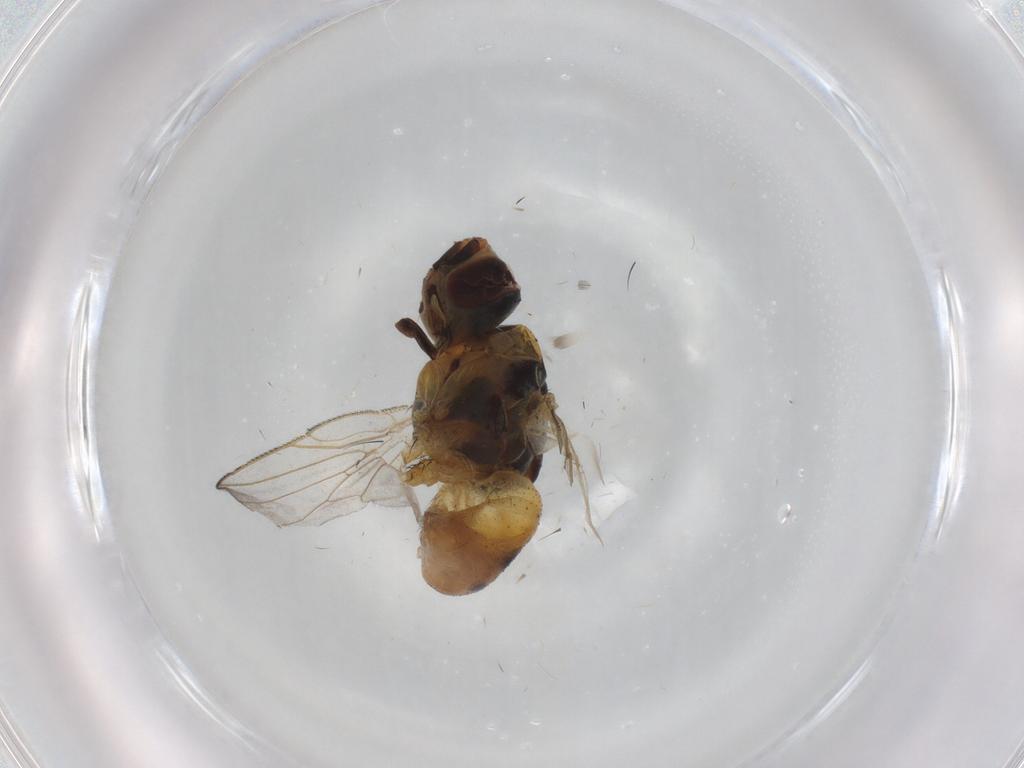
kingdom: Animalia
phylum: Arthropoda
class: Insecta
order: Diptera
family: Muscidae
